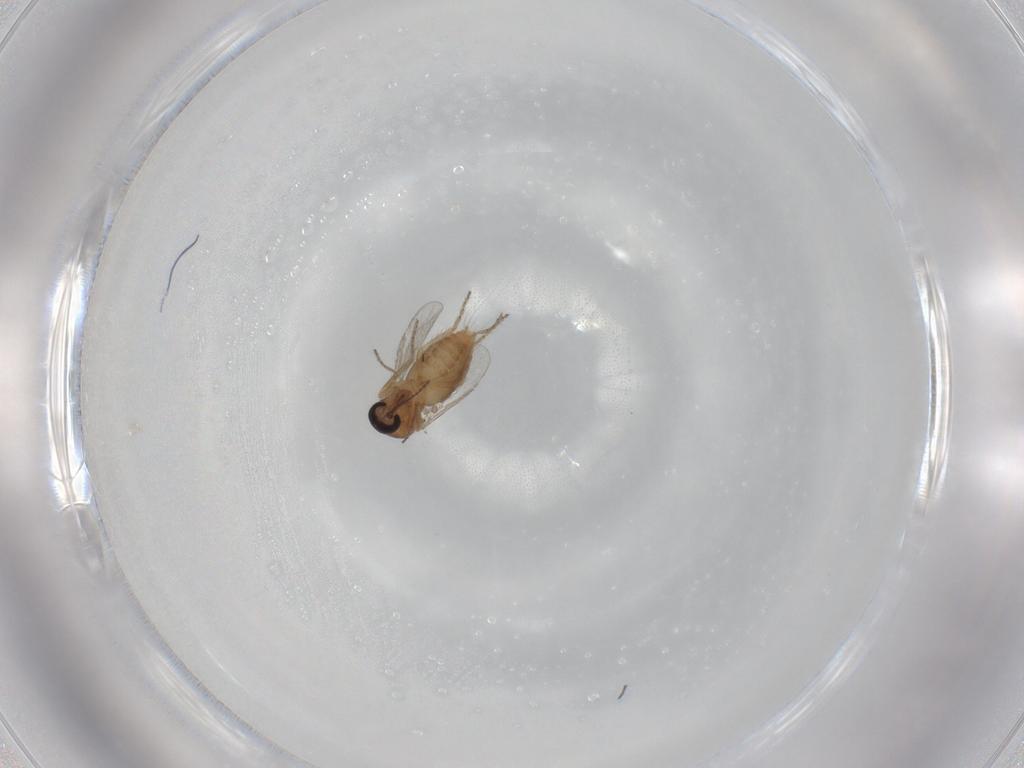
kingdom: Animalia
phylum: Arthropoda
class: Insecta
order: Diptera
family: Ceratopogonidae
